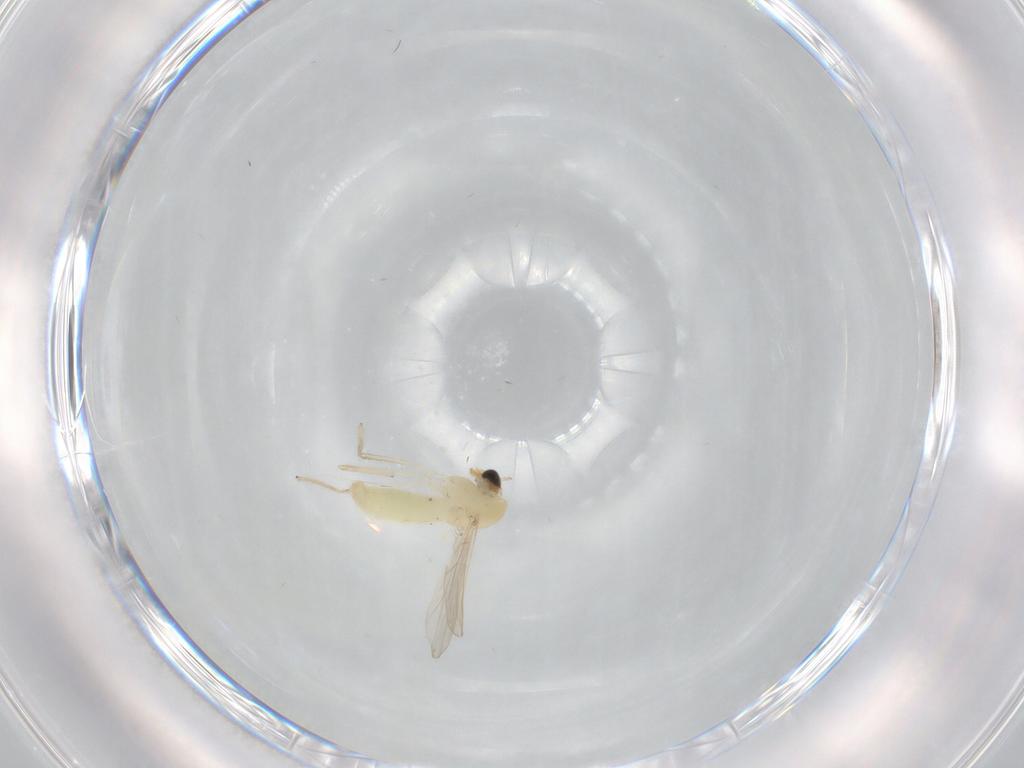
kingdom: Animalia
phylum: Arthropoda
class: Insecta
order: Diptera
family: Chironomidae
